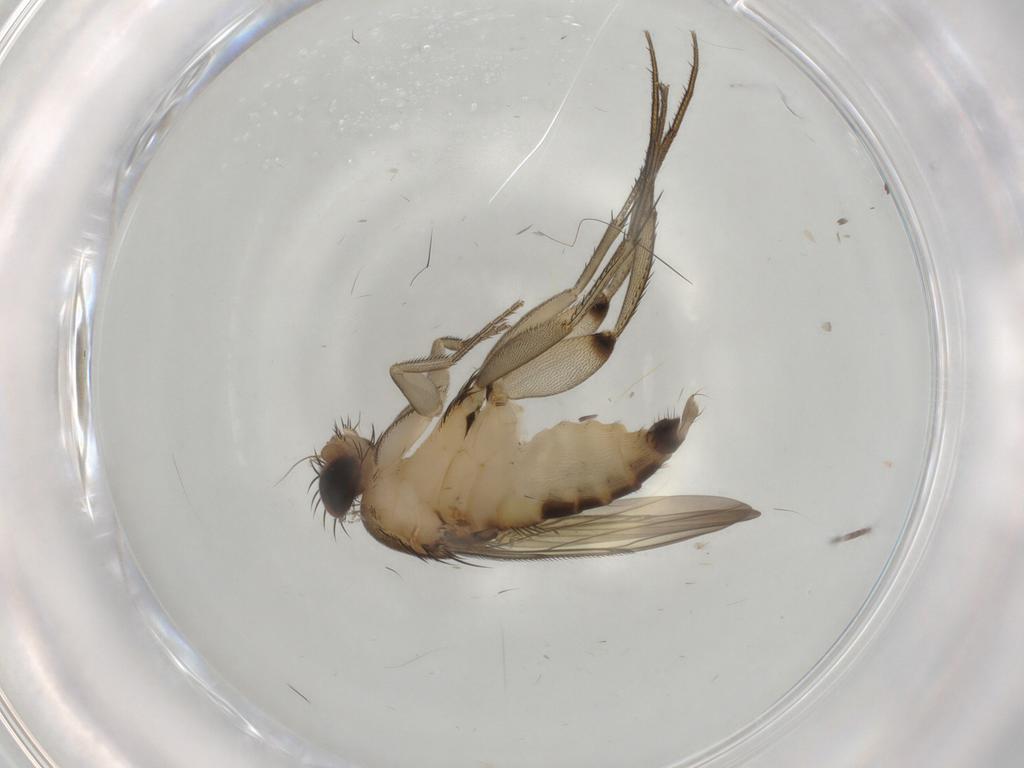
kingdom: Animalia
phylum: Arthropoda
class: Insecta
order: Diptera
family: Phoridae
